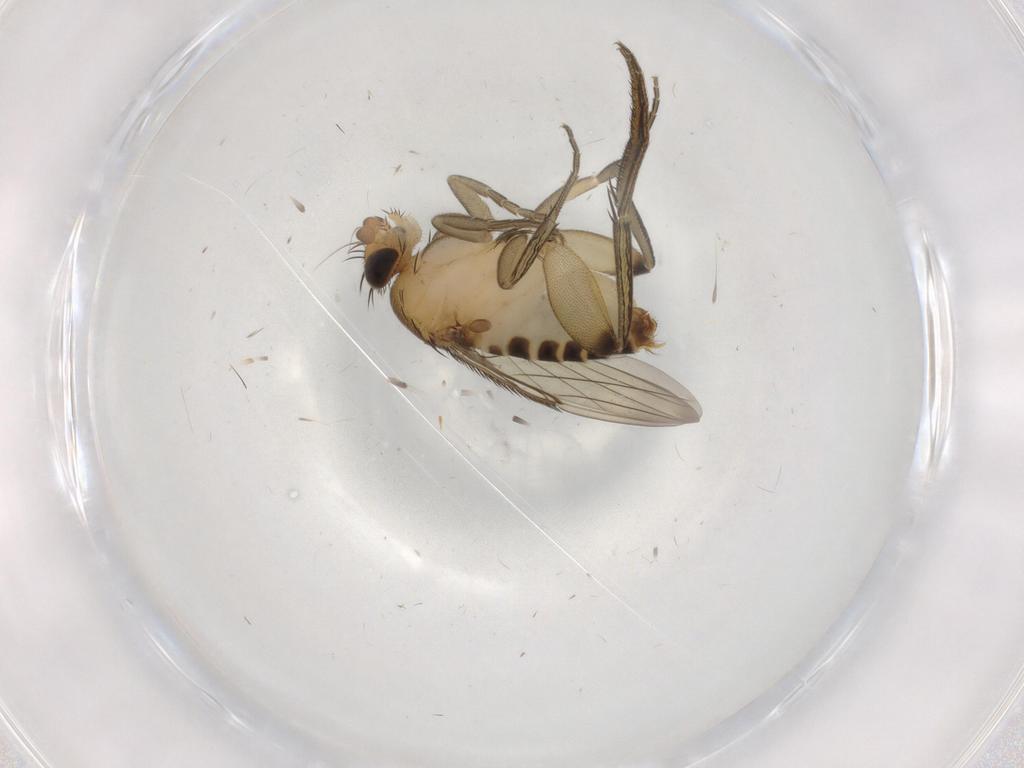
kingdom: Animalia
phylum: Arthropoda
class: Insecta
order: Diptera
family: Phoridae
